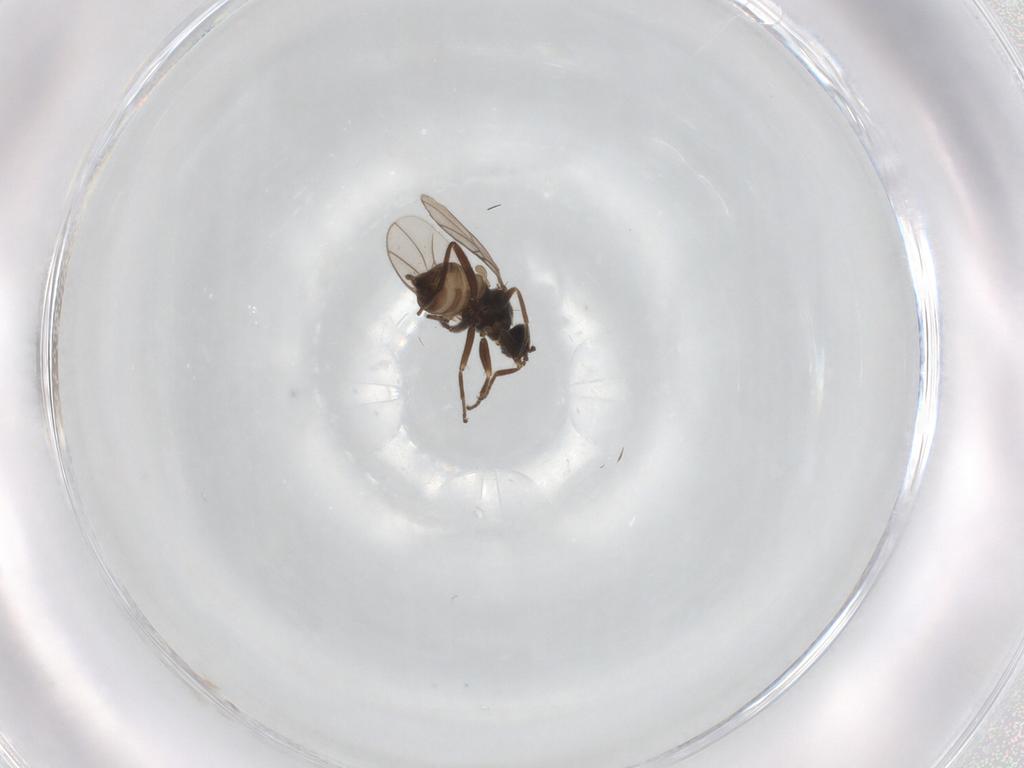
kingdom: Animalia
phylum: Arthropoda
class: Insecta
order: Diptera
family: Hybotidae
